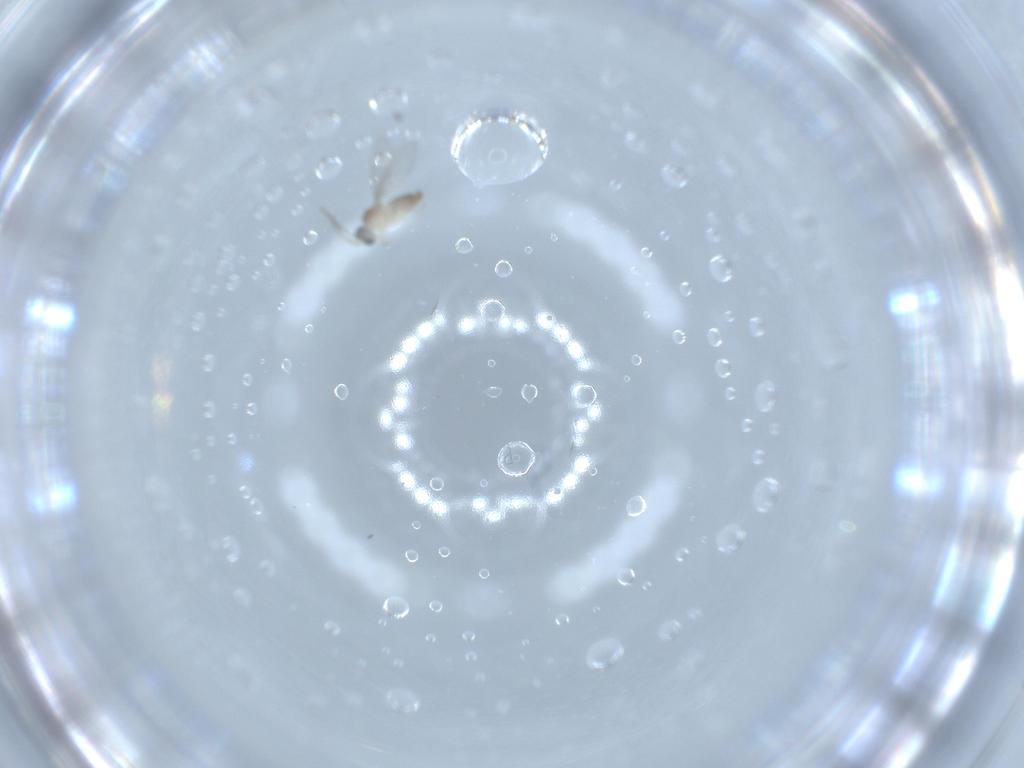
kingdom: Animalia
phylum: Arthropoda
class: Insecta
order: Diptera
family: Cecidomyiidae
